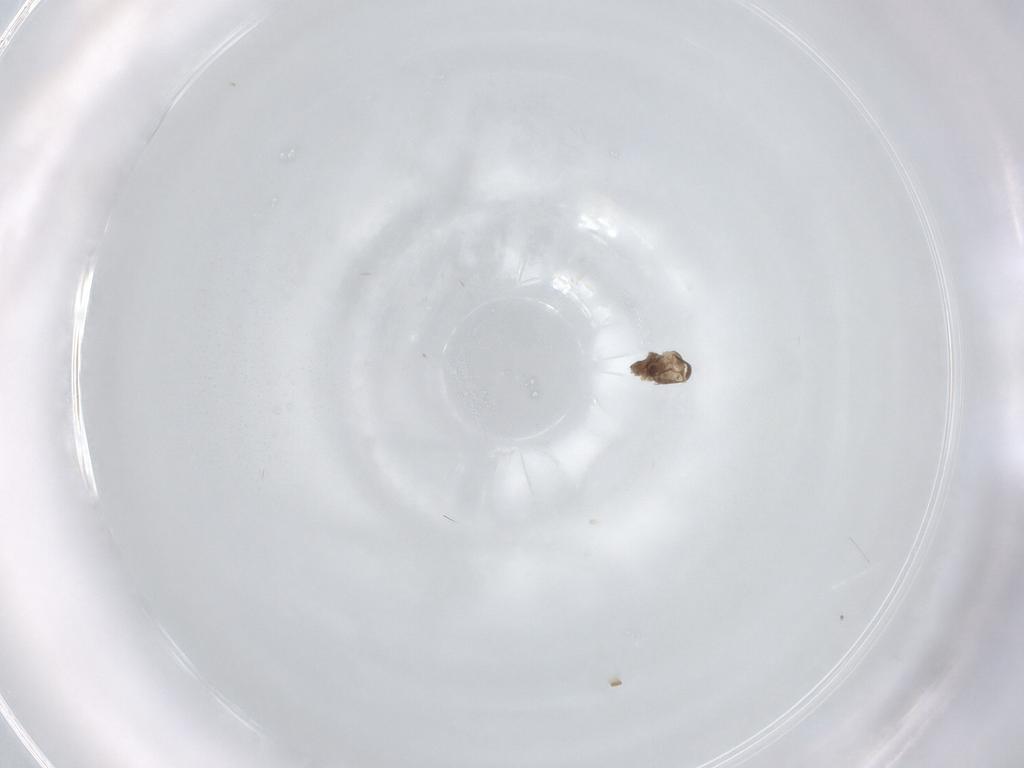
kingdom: Animalia
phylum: Arthropoda
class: Insecta
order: Diptera
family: Cecidomyiidae
